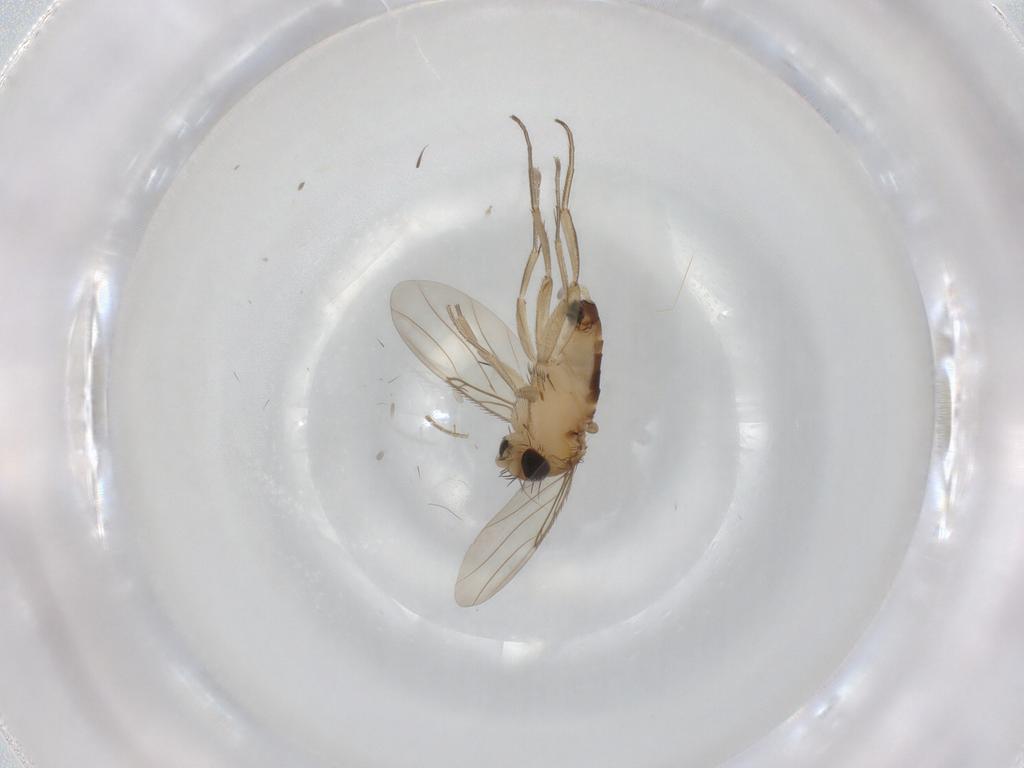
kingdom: Animalia
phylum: Arthropoda
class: Insecta
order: Diptera
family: Phoridae
